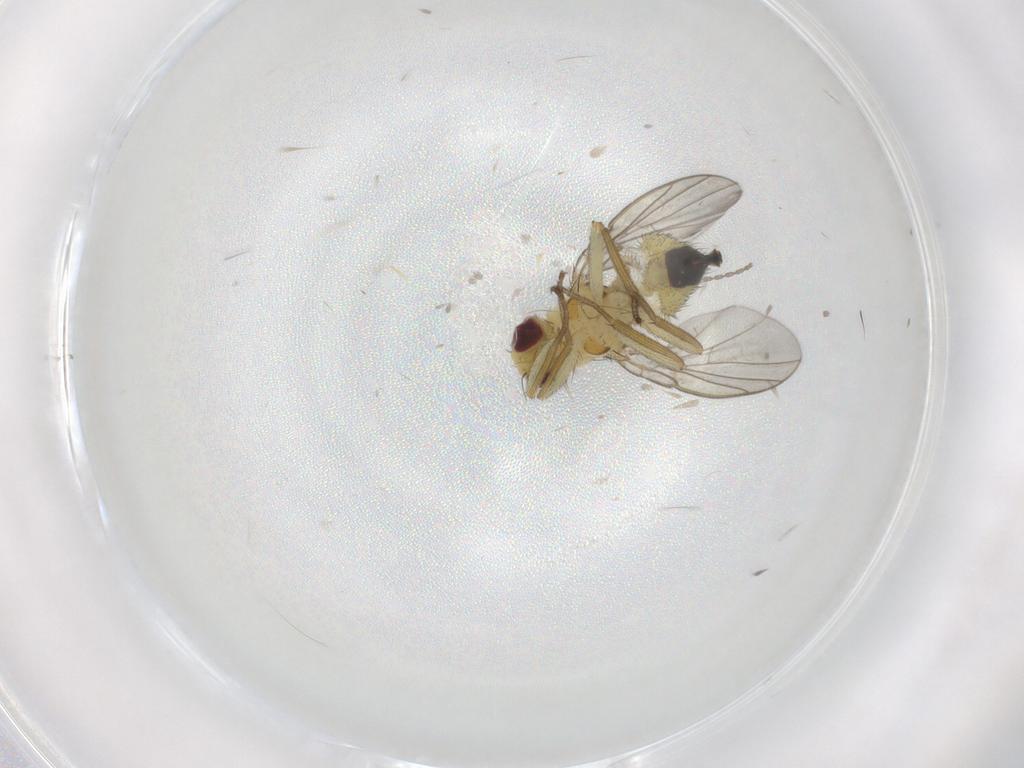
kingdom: Animalia
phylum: Arthropoda
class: Insecta
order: Diptera
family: Agromyzidae
